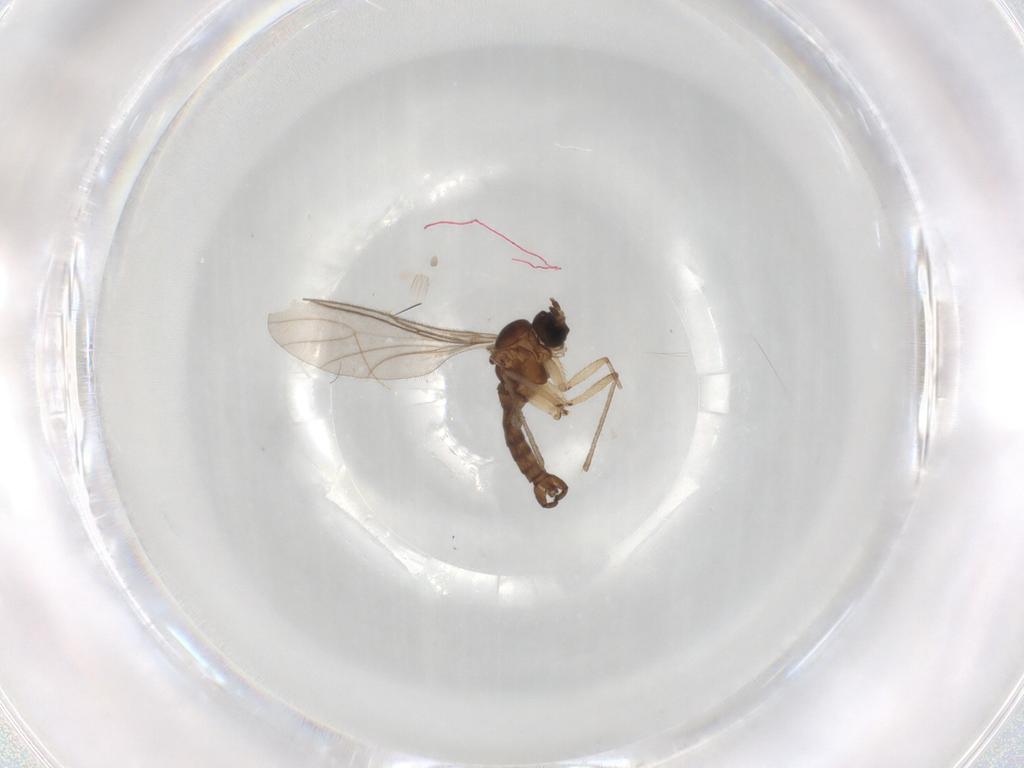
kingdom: Animalia
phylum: Arthropoda
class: Insecta
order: Diptera
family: Sciaridae
